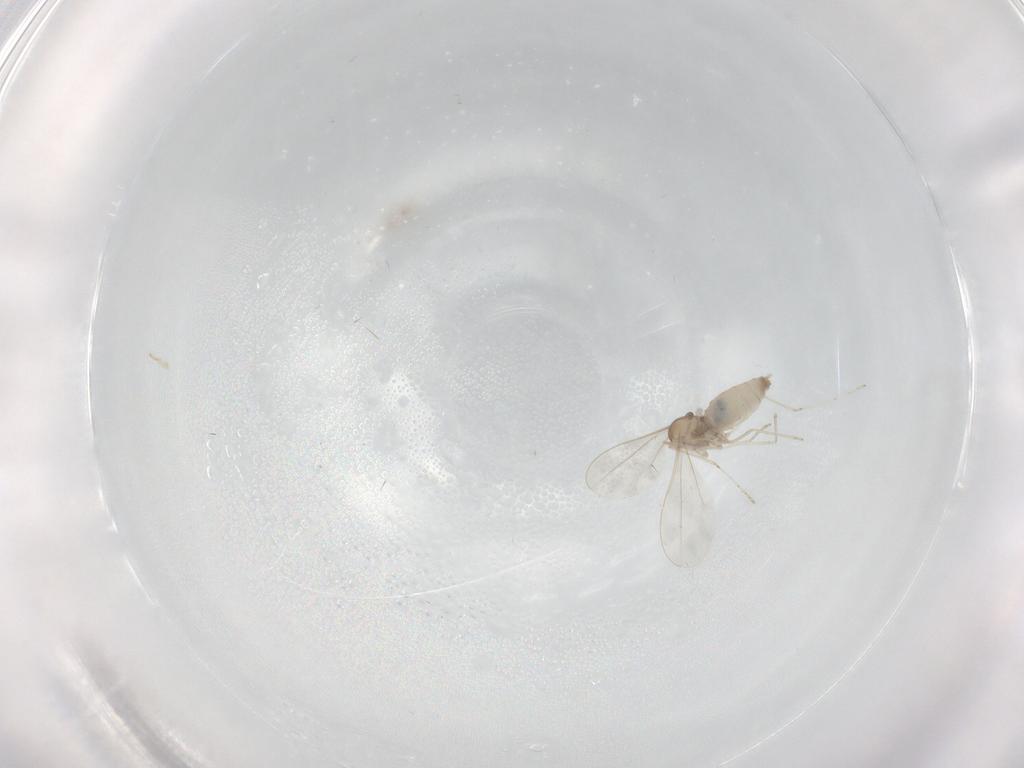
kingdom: Animalia
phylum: Arthropoda
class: Insecta
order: Diptera
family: Cecidomyiidae
